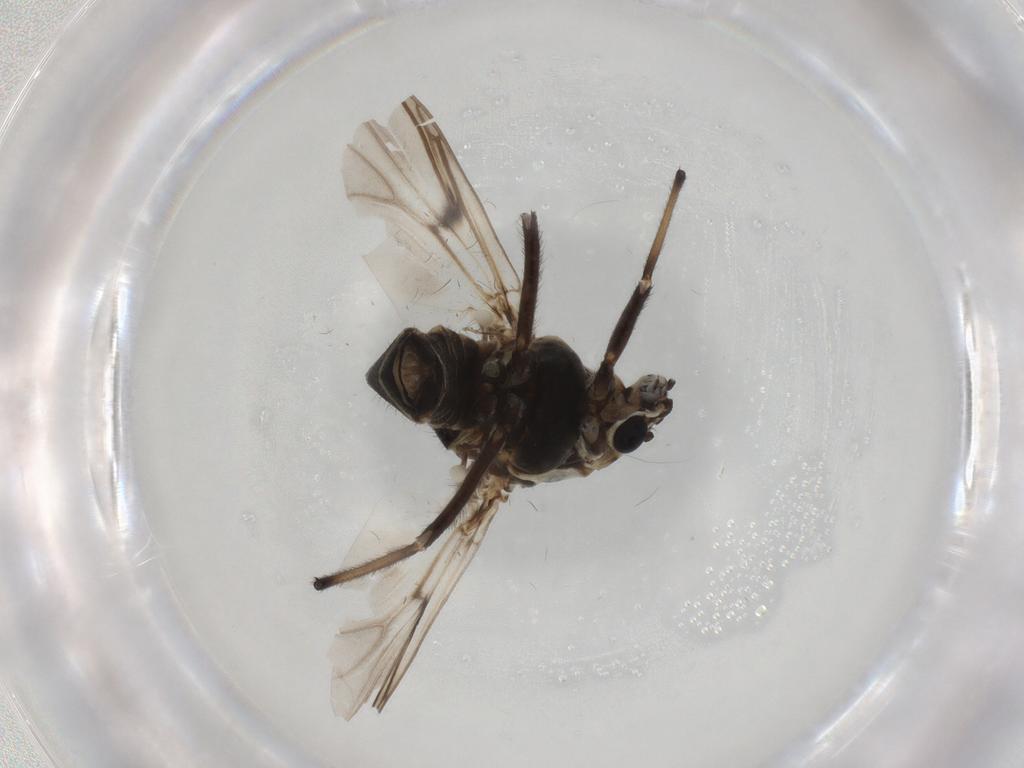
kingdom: Animalia
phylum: Arthropoda
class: Insecta
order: Diptera
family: Chironomidae
